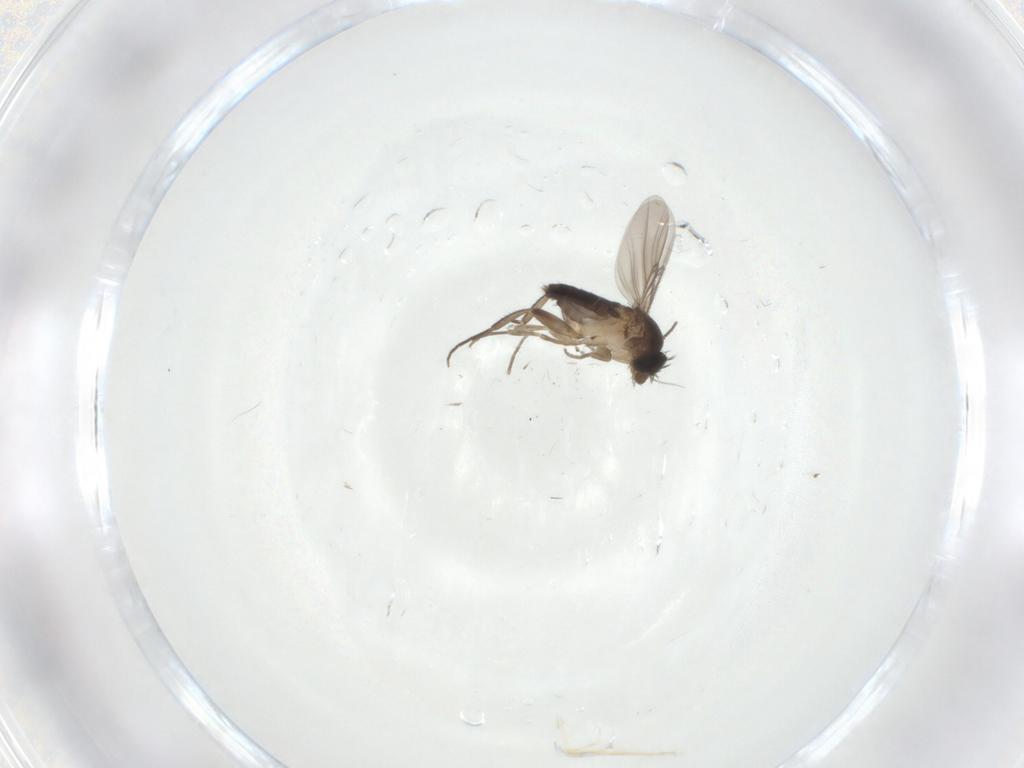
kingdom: Animalia
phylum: Arthropoda
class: Insecta
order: Diptera
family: Phoridae
